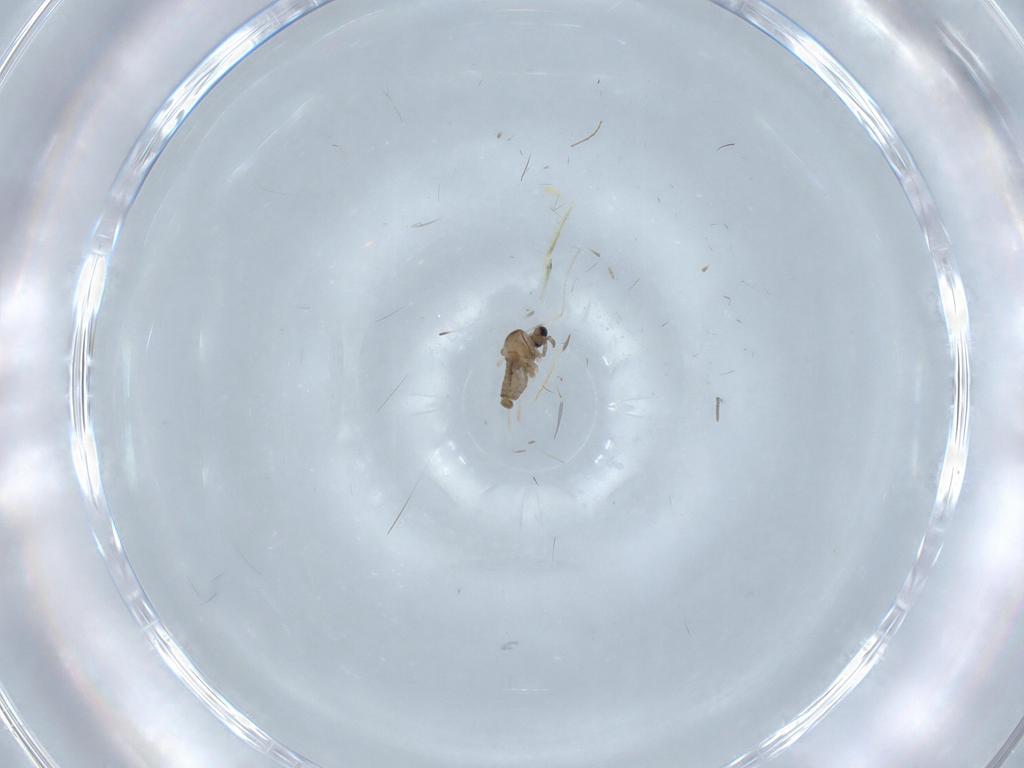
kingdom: Animalia
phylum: Arthropoda
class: Insecta
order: Diptera
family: Cecidomyiidae
